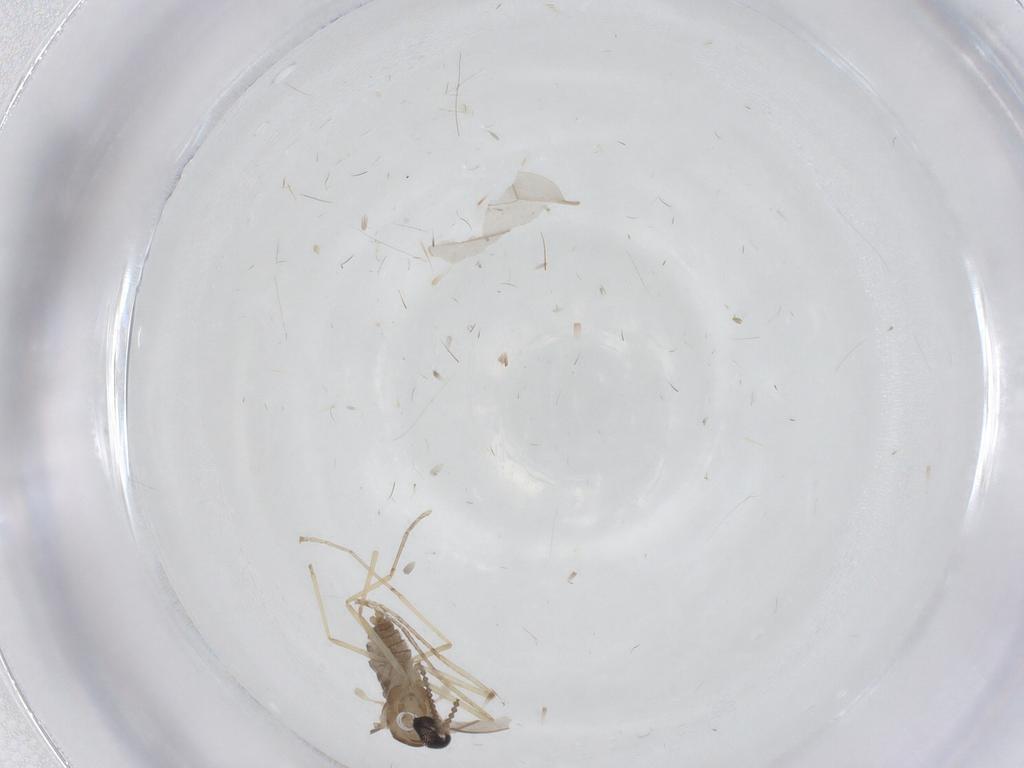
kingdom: Animalia
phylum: Arthropoda
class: Insecta
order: Diptera
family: Cecidomyiidae
